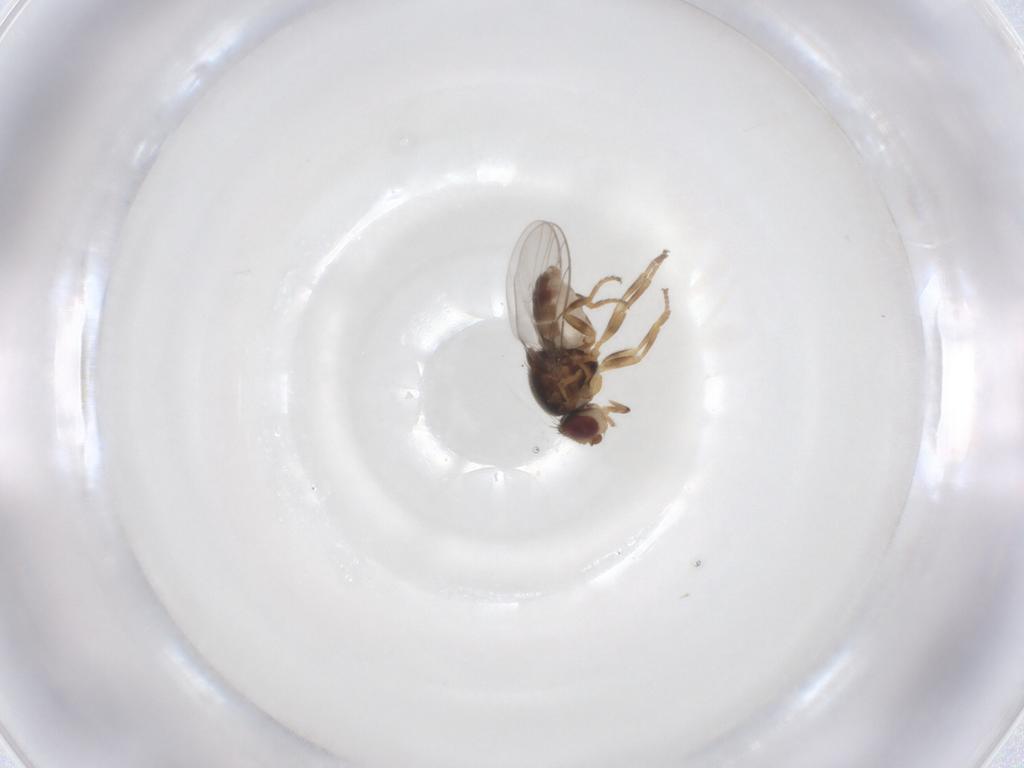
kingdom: Animalia
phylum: Arthropoda
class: Insecta
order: Diptera
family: Chloropidae
